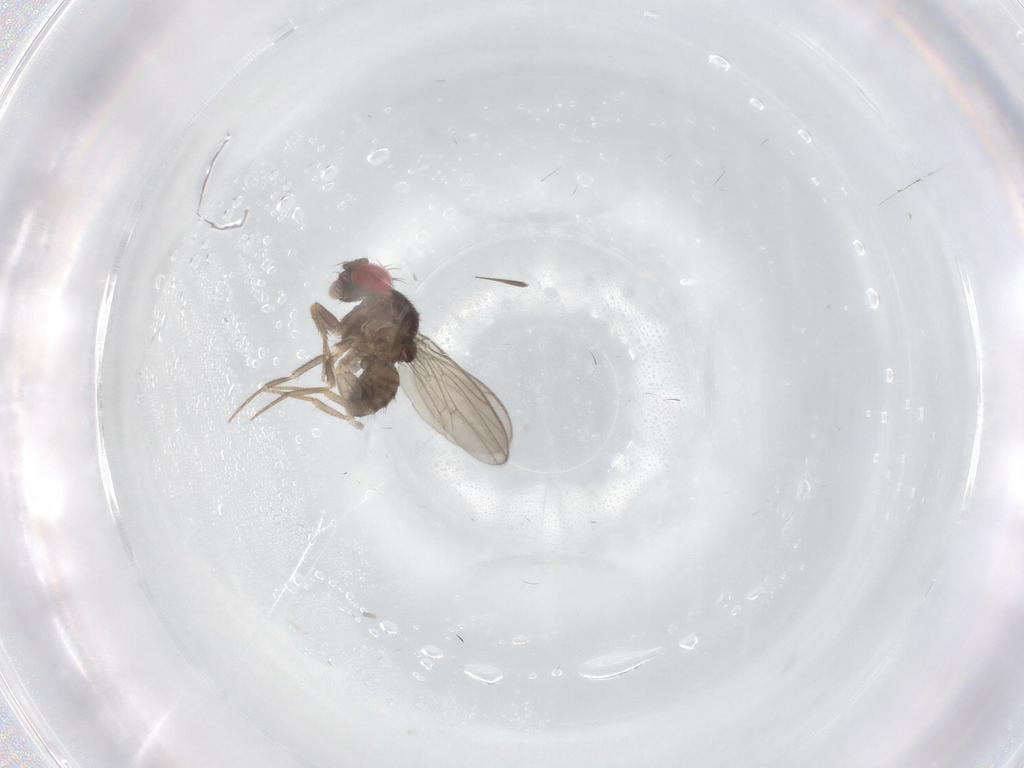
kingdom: Animalia
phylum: Arthropoda
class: Insecta
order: Diptera
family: Drosophilidae
